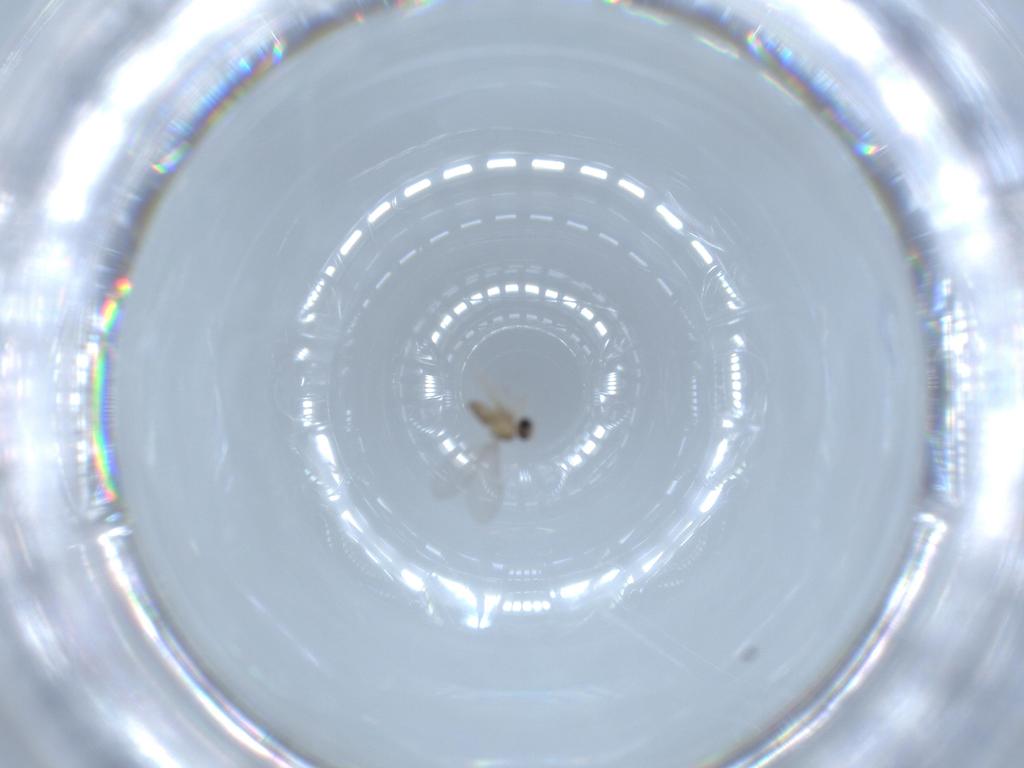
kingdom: Animalia
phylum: Arthropoda
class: Insecta
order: Diptera
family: Cecidomyiidae
